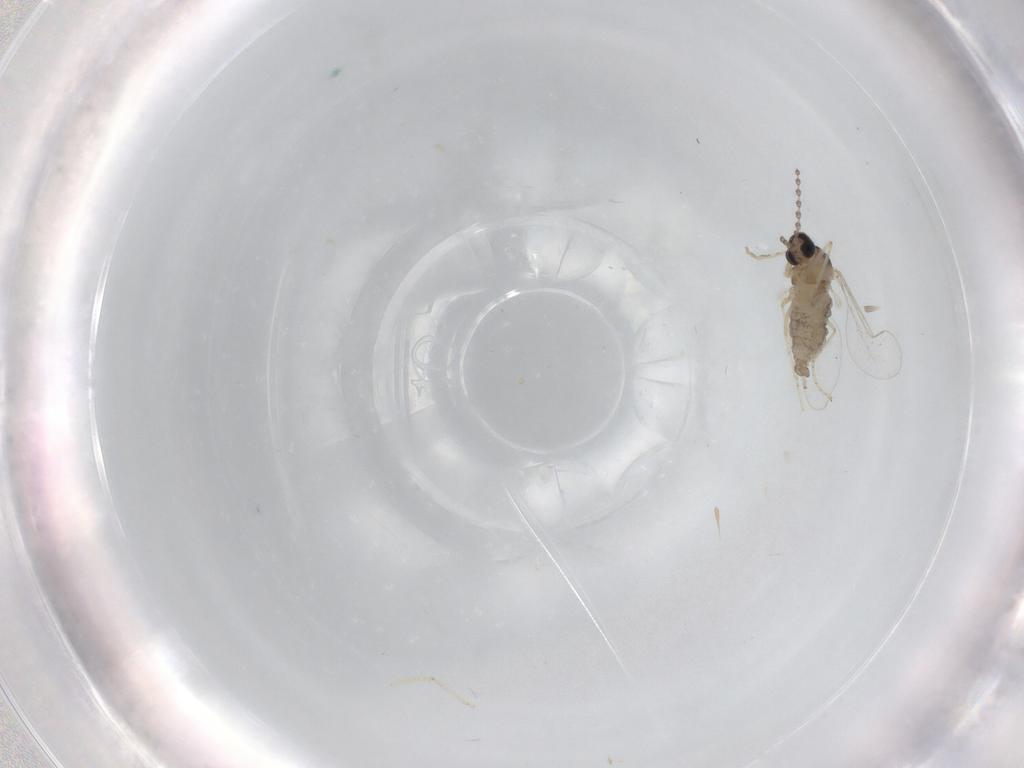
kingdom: Animalia
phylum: Arthropoda
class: Insecta
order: Diptera
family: Cecidomyiidae
